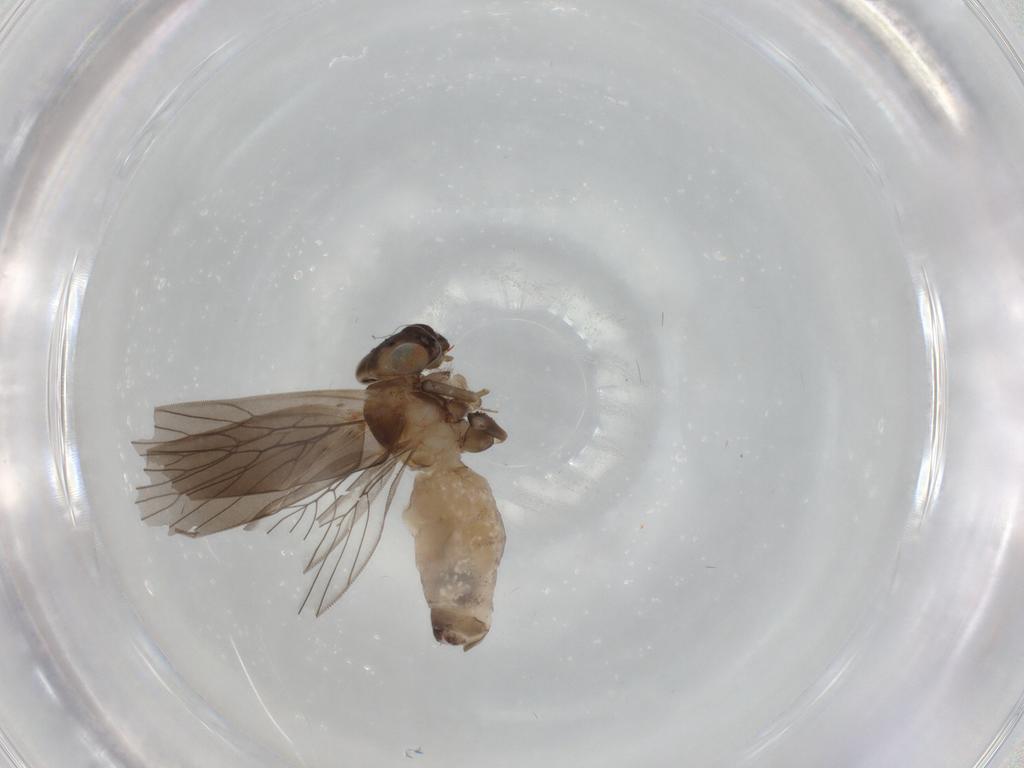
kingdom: Animalia
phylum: Arthropoda
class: Insecta
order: Psocodea
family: Lepidopsocidae
